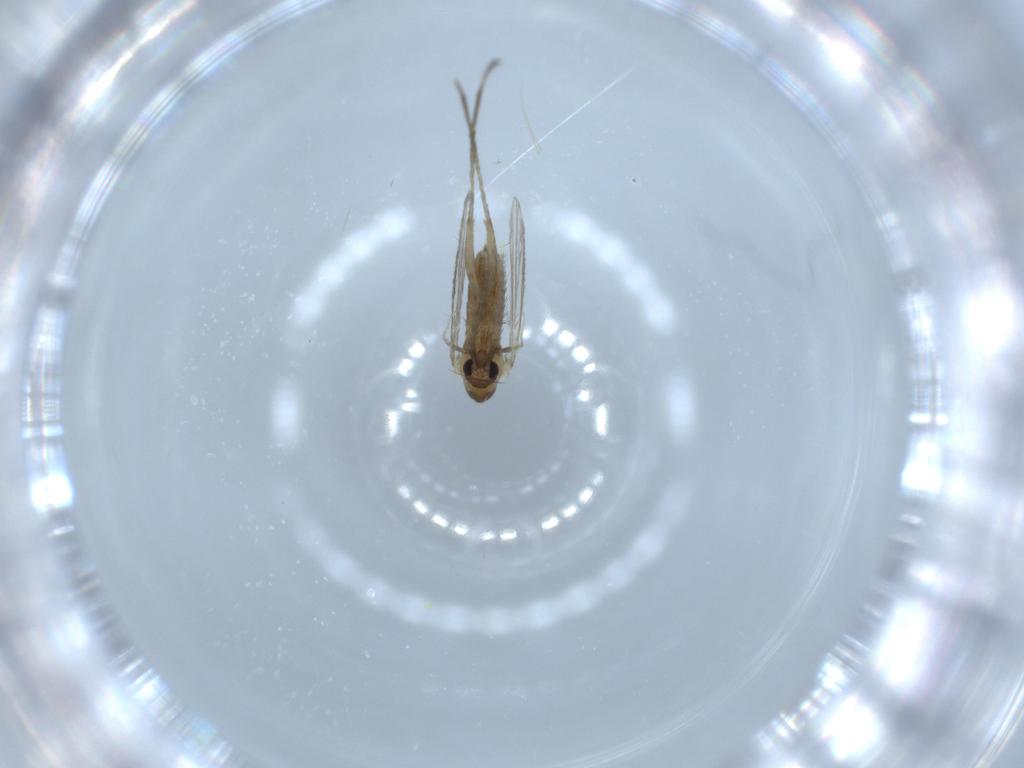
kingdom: Animalia
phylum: Arthropoda
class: Insecta
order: Diptera
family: Psychodidae
